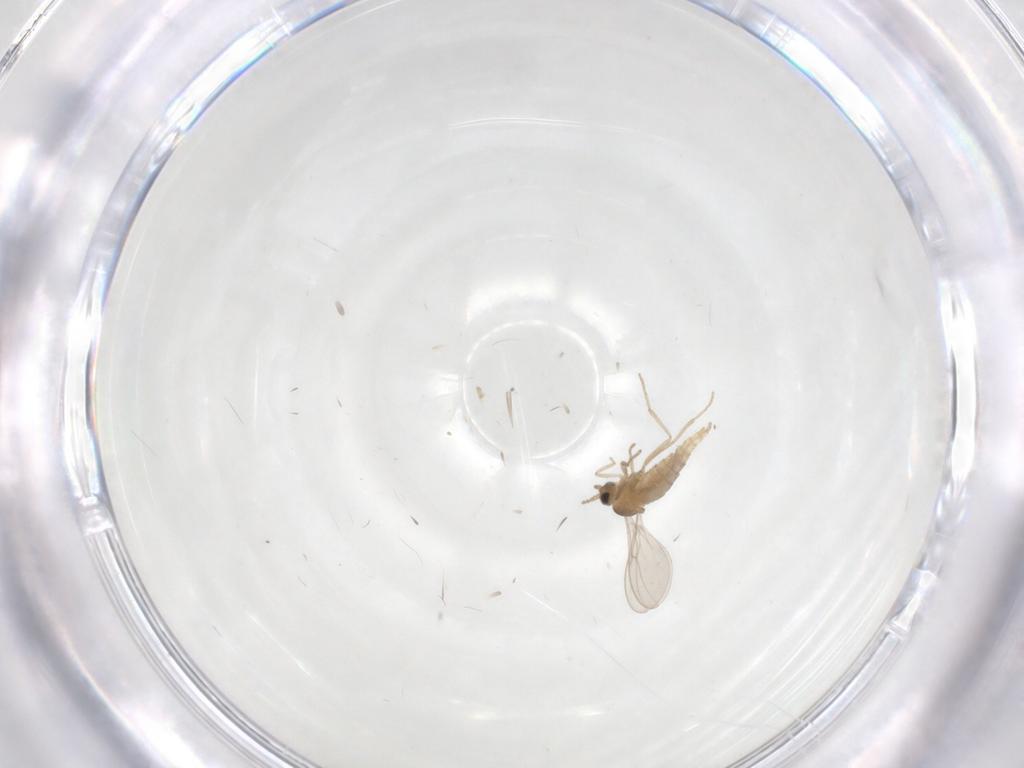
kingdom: Animalia
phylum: Arthropoda
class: Insecta
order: Diptera
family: Cecidomyiidae
